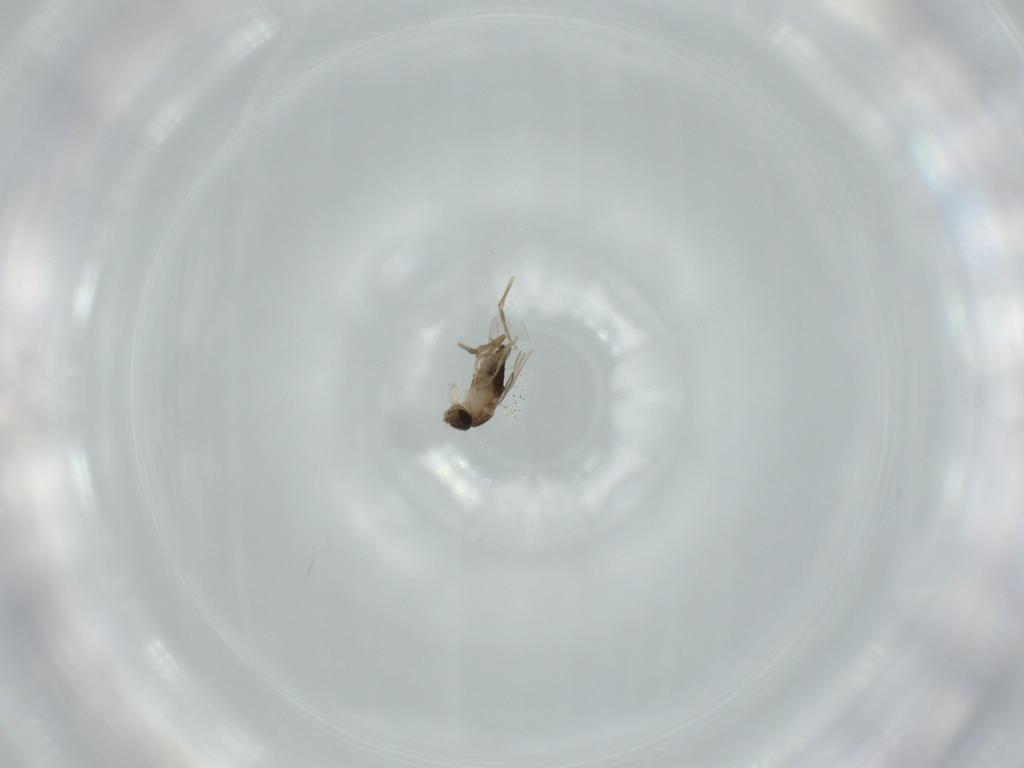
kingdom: Animalia
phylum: Arthropoda
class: Insecta
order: Diptera
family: Phoridae
